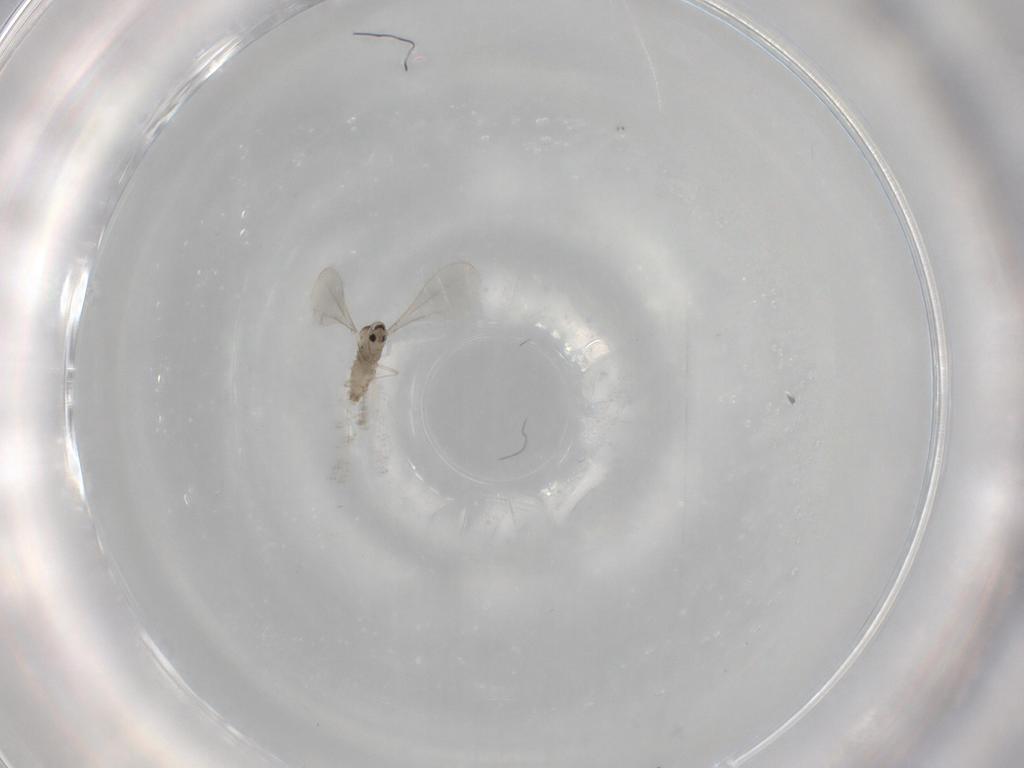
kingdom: Animalia
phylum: Arthropoda
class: Insecta
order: Diptera
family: Cecidomyiidae
